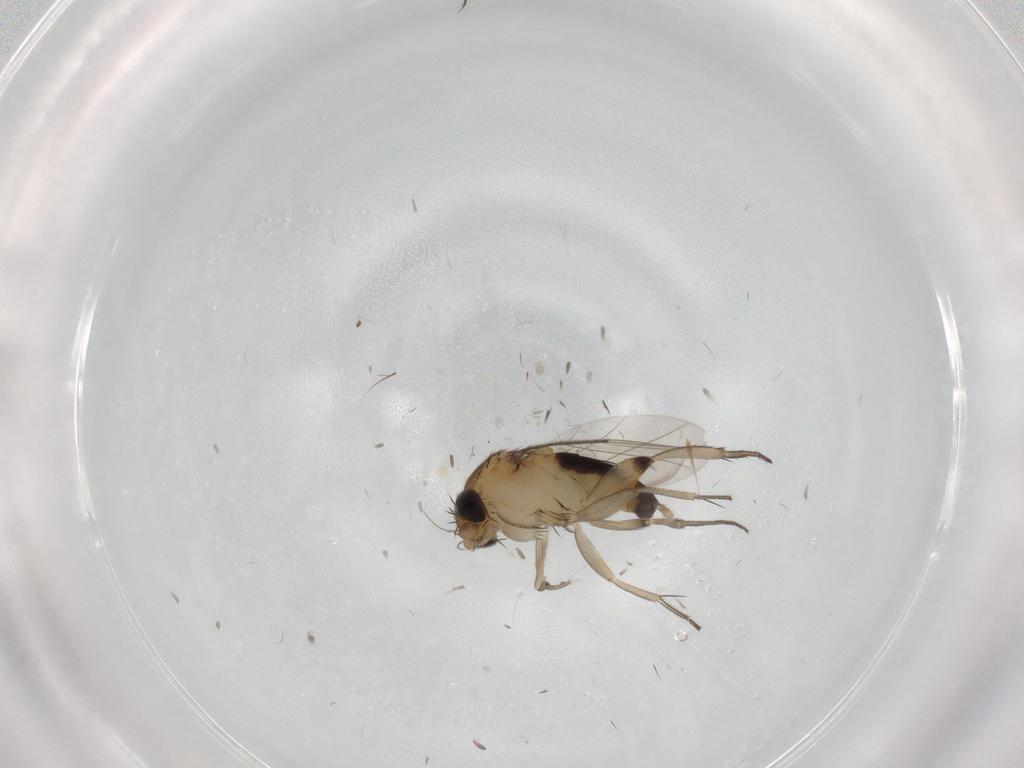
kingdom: Animalia
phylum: Arthropoda
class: Insecta
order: Diptera
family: Phoridae
